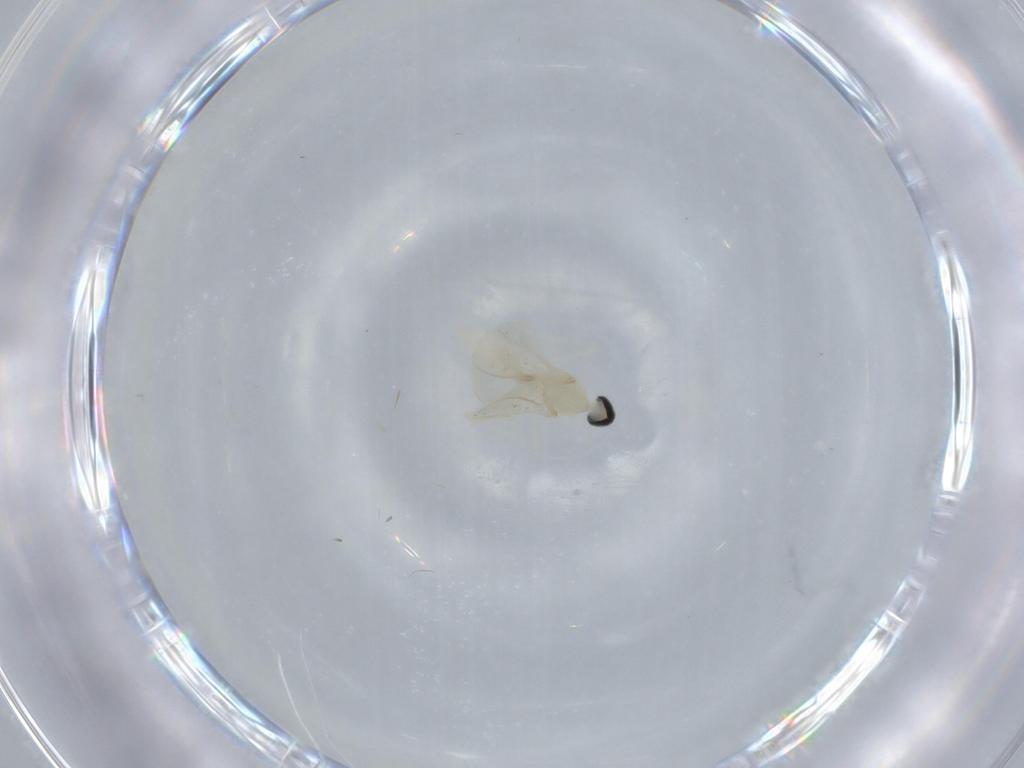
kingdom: Animalia
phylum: Arthropoda
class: Insecta
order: Diptera
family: Cecidomyiidae
